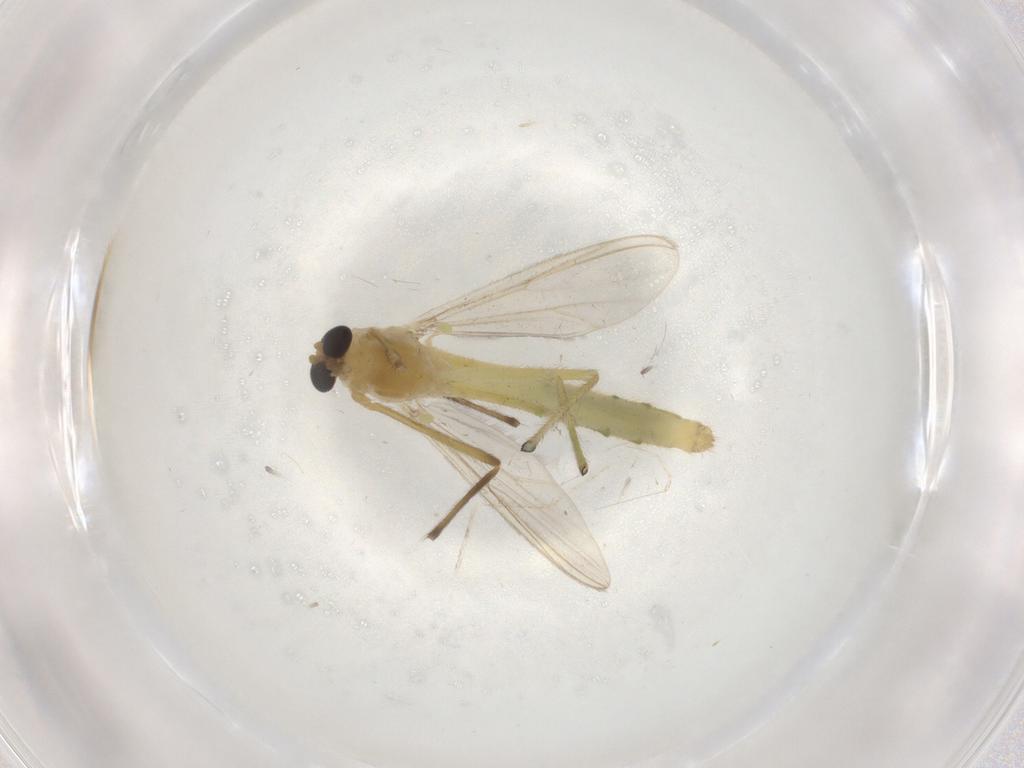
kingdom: Animalia
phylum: Arthropoda
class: Insecta
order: Diptera
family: Chironomidae
